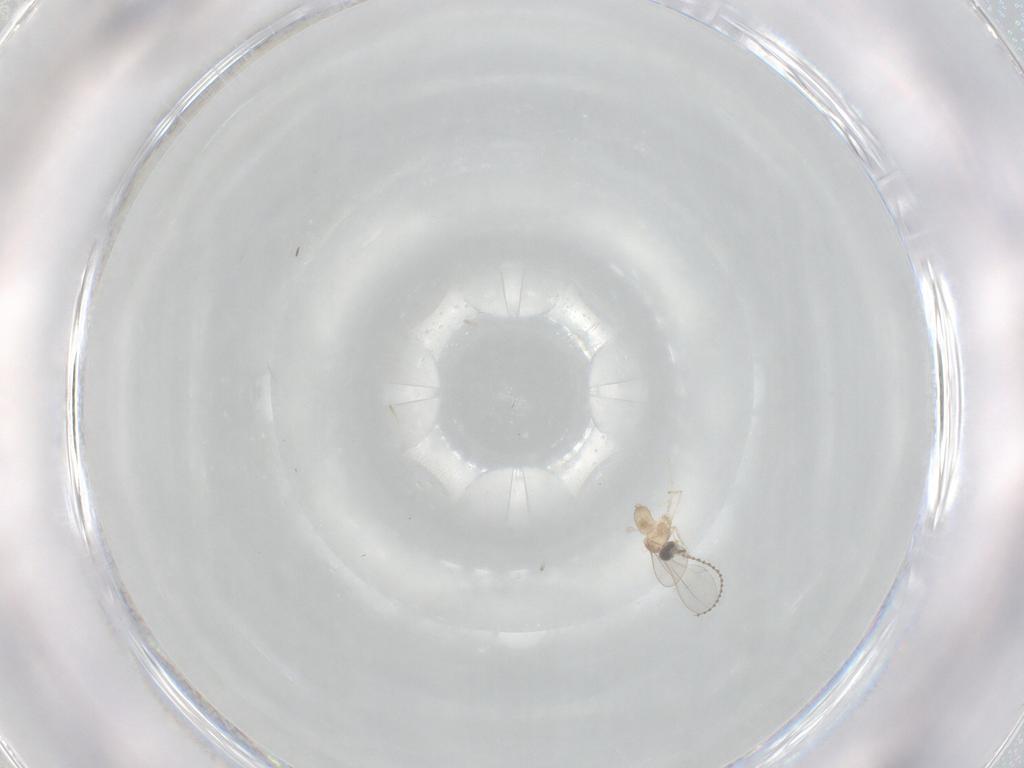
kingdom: Animalia
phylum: Arthropoda
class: Insecta
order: Diptera
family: Cecidomyiidae
